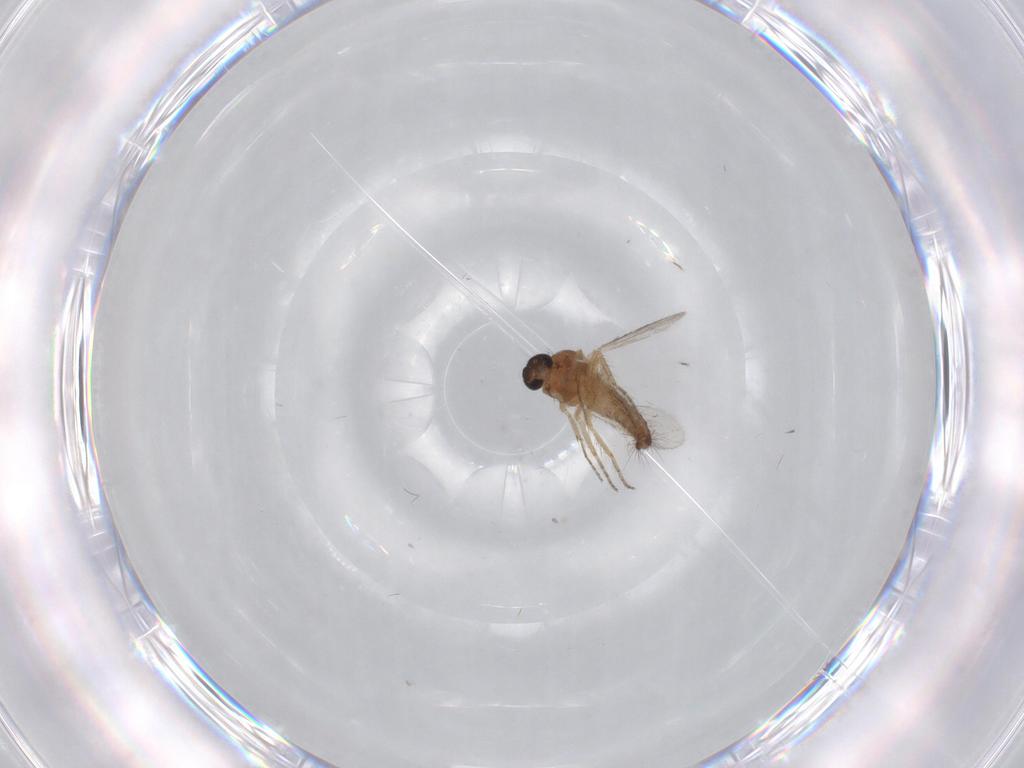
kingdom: Animalia
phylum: Arthropoda
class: Insecta
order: Diptera
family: Ceratopogonidae
